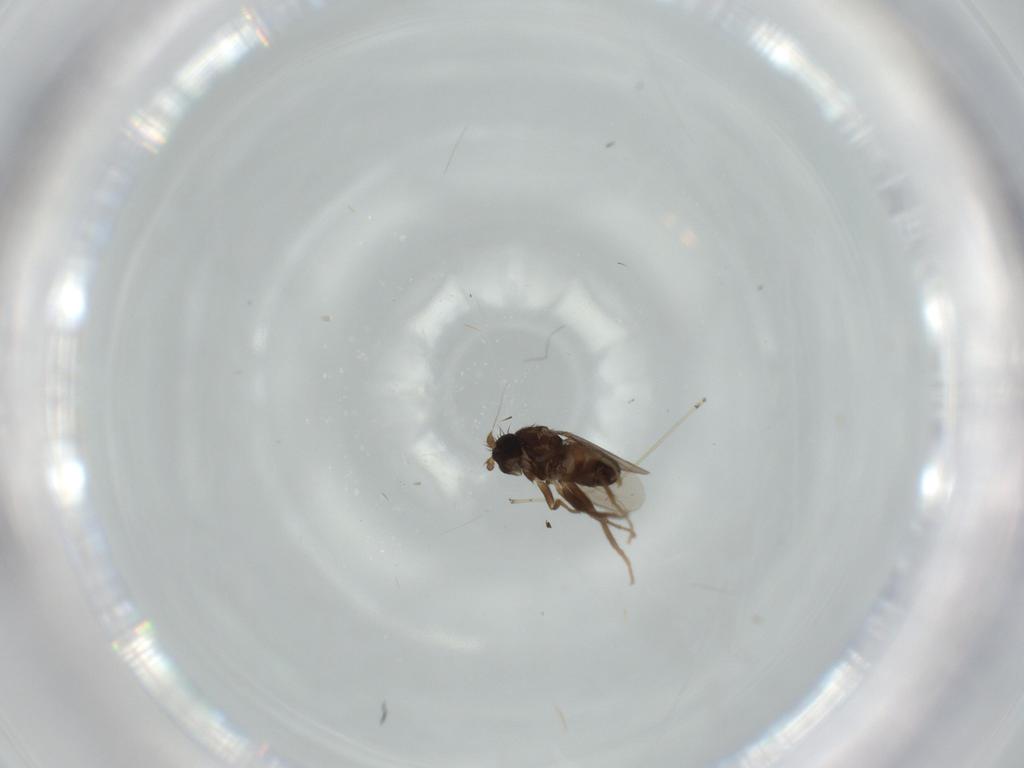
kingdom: Animalia
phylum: Arthropoda
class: Insecta
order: Diptera
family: Sphaeroceridae
